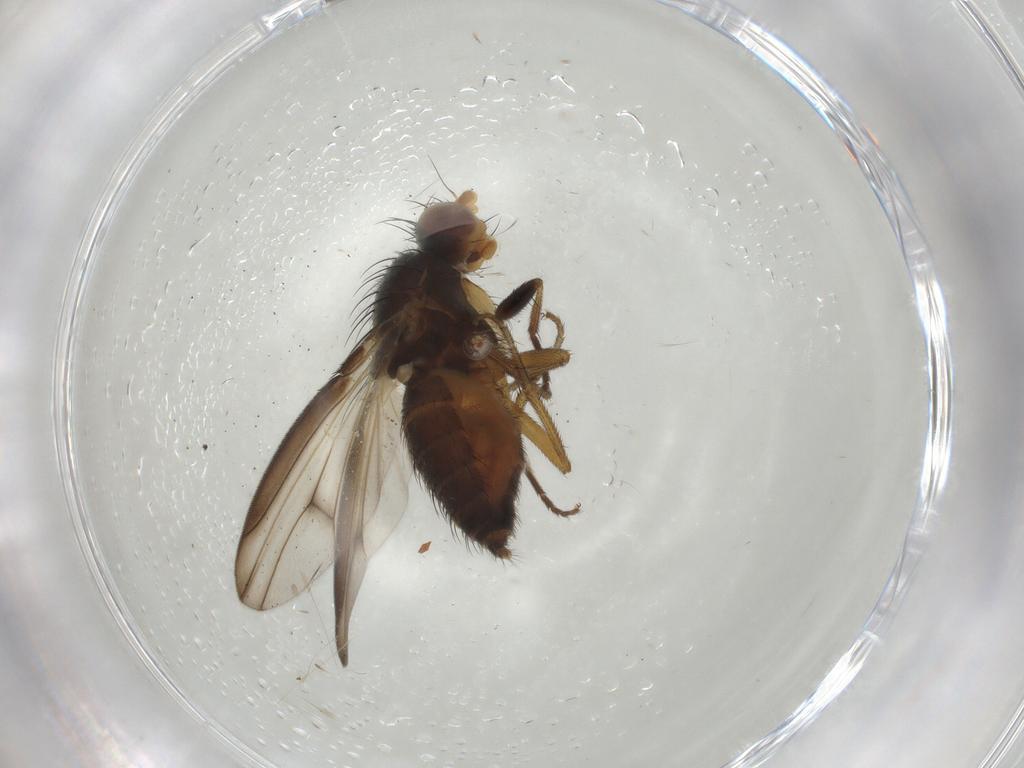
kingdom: Animalia
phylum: Arthropoda
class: Insecta
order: Diptera
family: Heleomyzidae
